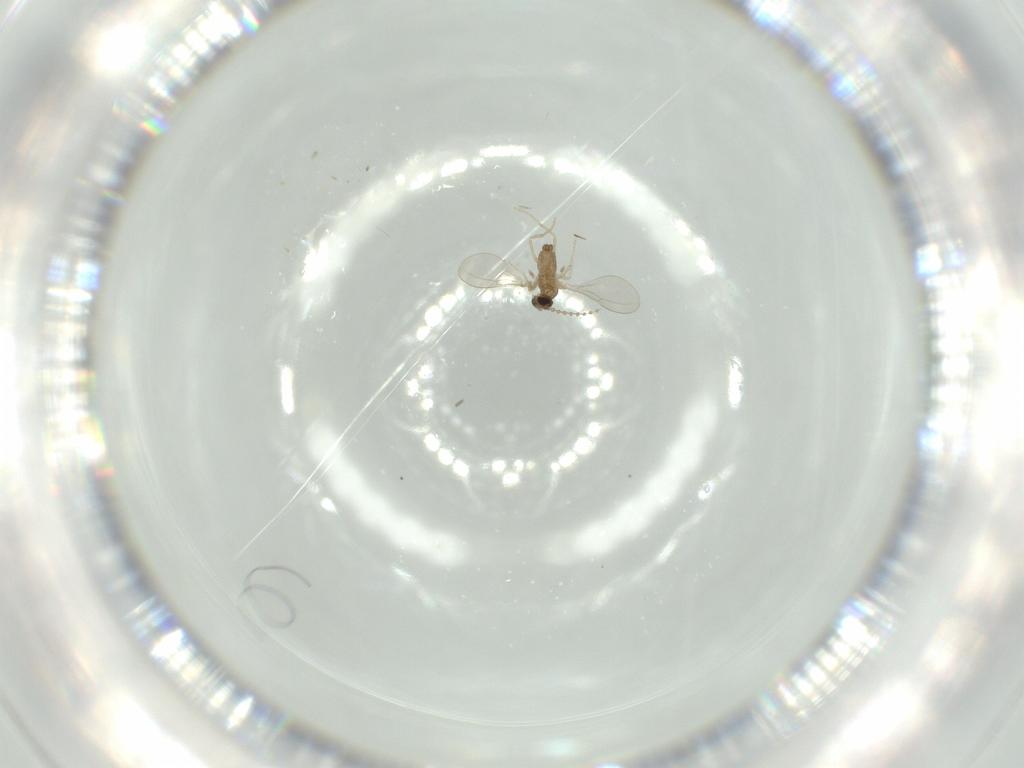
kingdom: Animalia
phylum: Arthropoda
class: Insecta
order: Diptera
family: Cecidomyiidae
